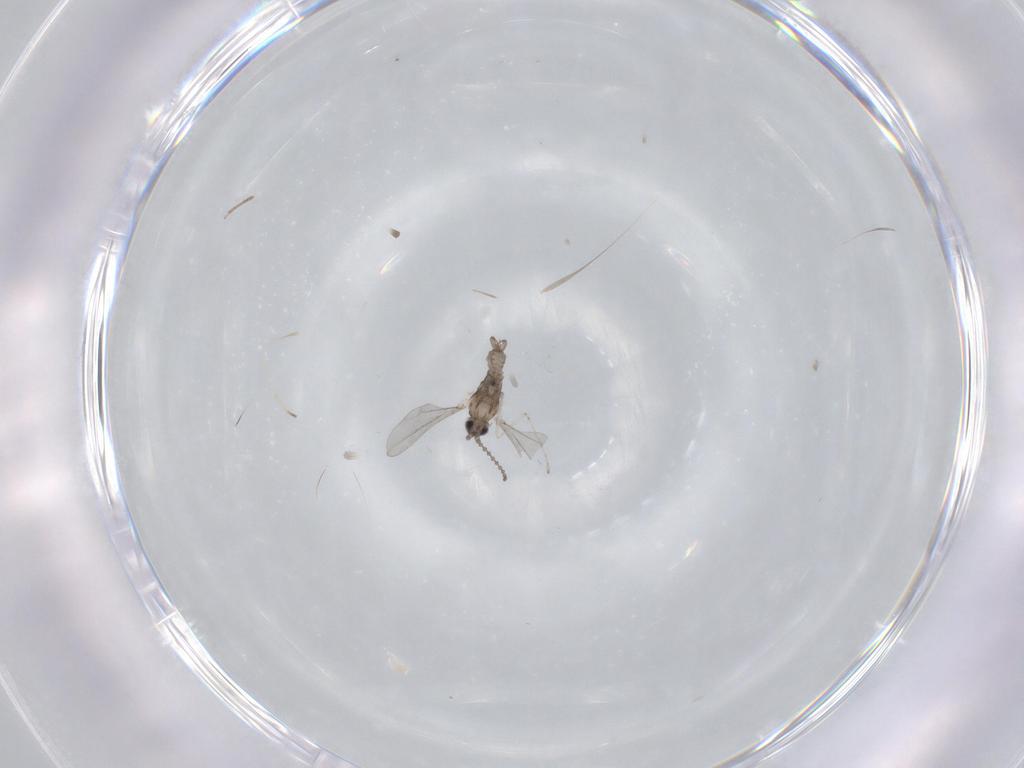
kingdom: Animalia
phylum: Arthropoda
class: Insecta
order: Diptera
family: Cecidomyiidae
